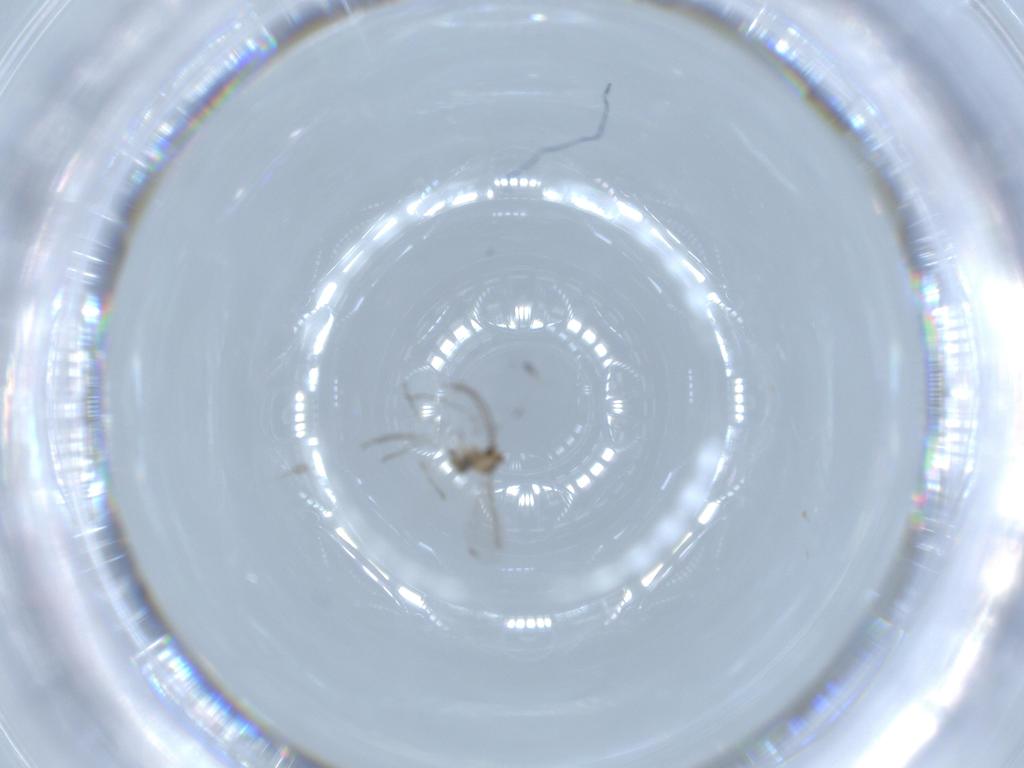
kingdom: Animalia
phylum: Arthropoda
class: Insecta
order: Diptera
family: Cecidomyiidae
